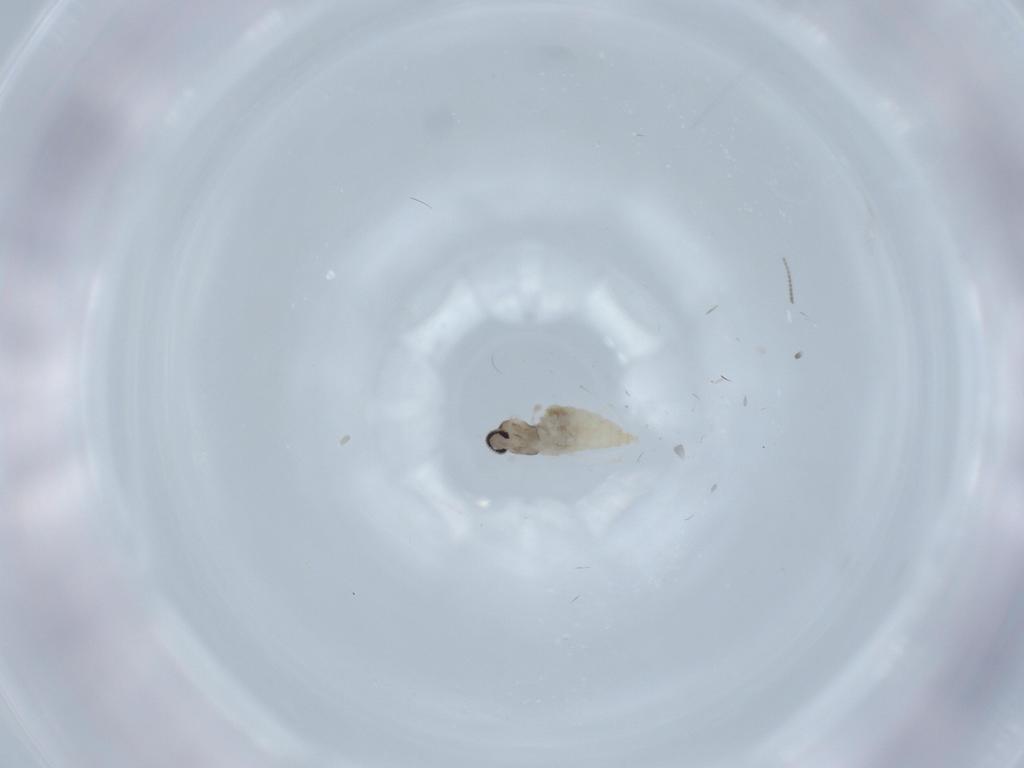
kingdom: Animalia
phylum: Arthropoda
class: Insecta
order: Diptera
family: Cecidomyiidae
